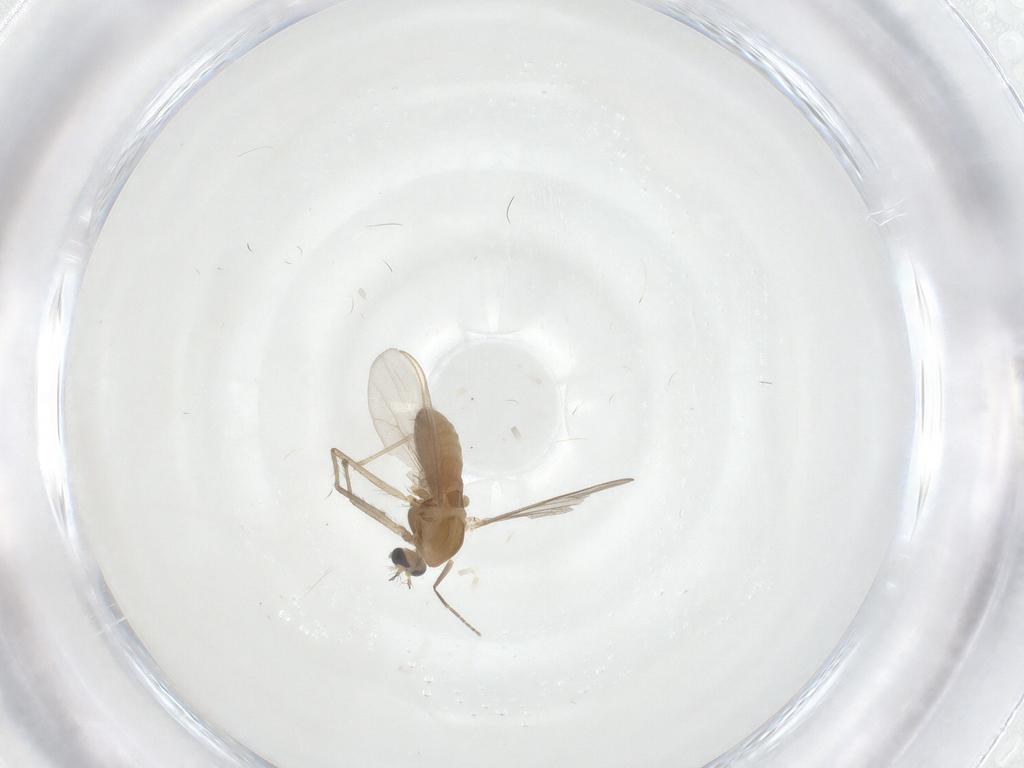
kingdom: Animalia
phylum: Arthropoda
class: Insecta
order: Diptera
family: Chironomidae
